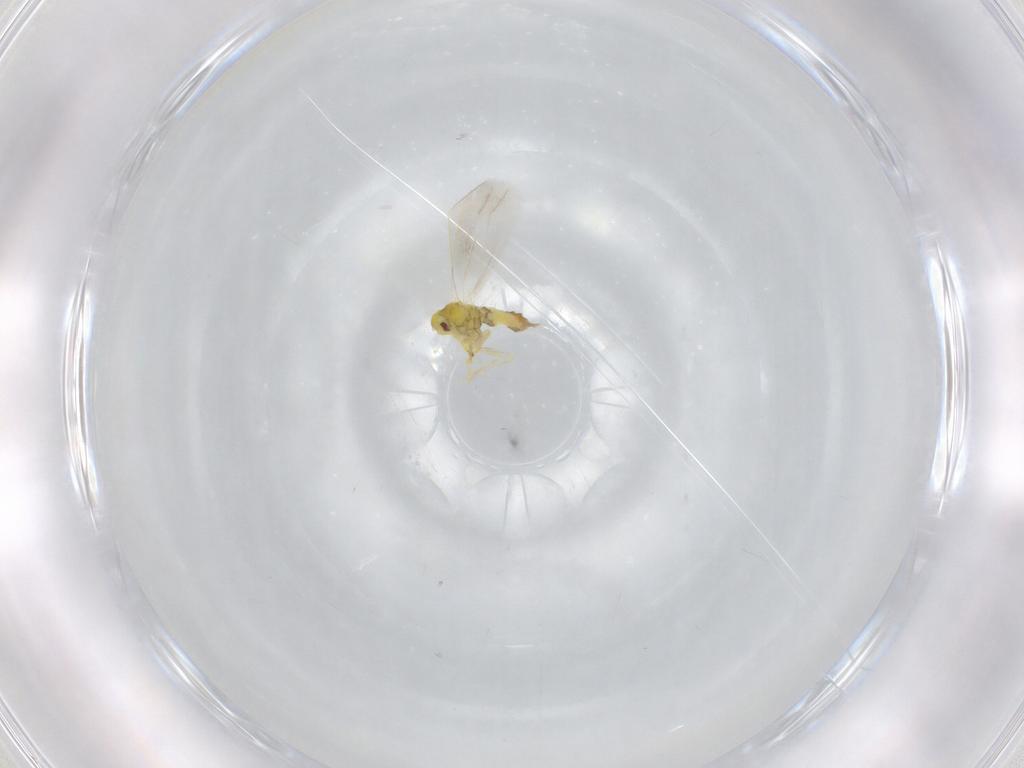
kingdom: Animalia
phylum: Arthropoda
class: Insecta
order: Hemiptera
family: Aleyrodidae
